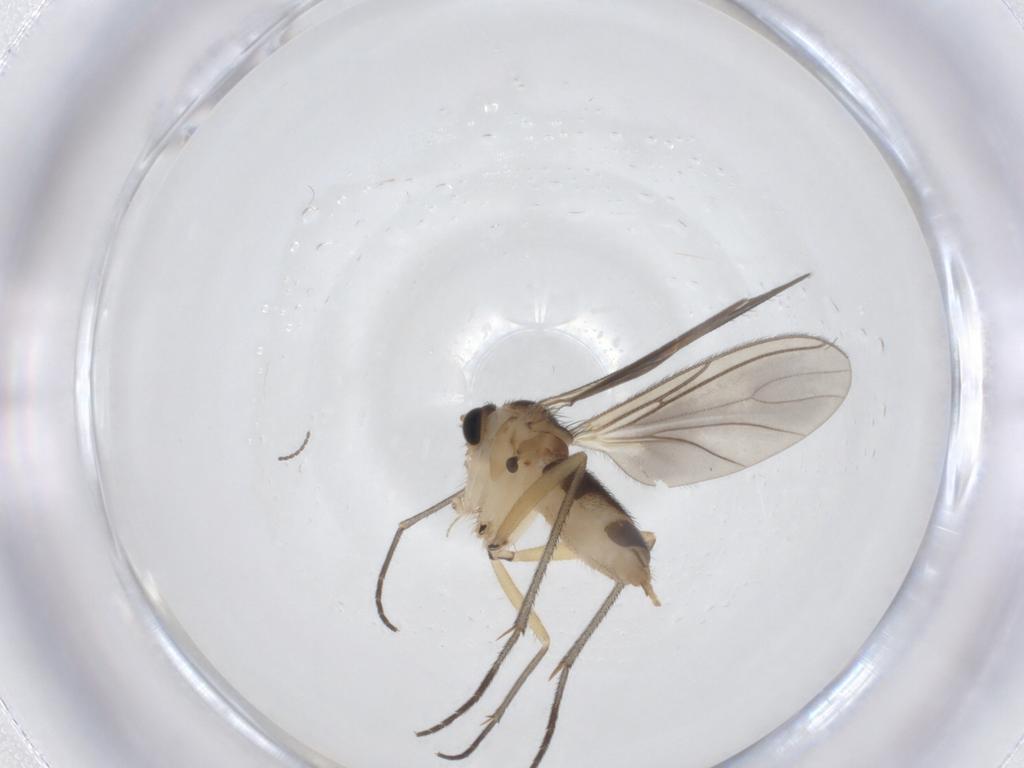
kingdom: Animalia
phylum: Arthropoda
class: Insecta
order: Diptera
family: Sciaridae
